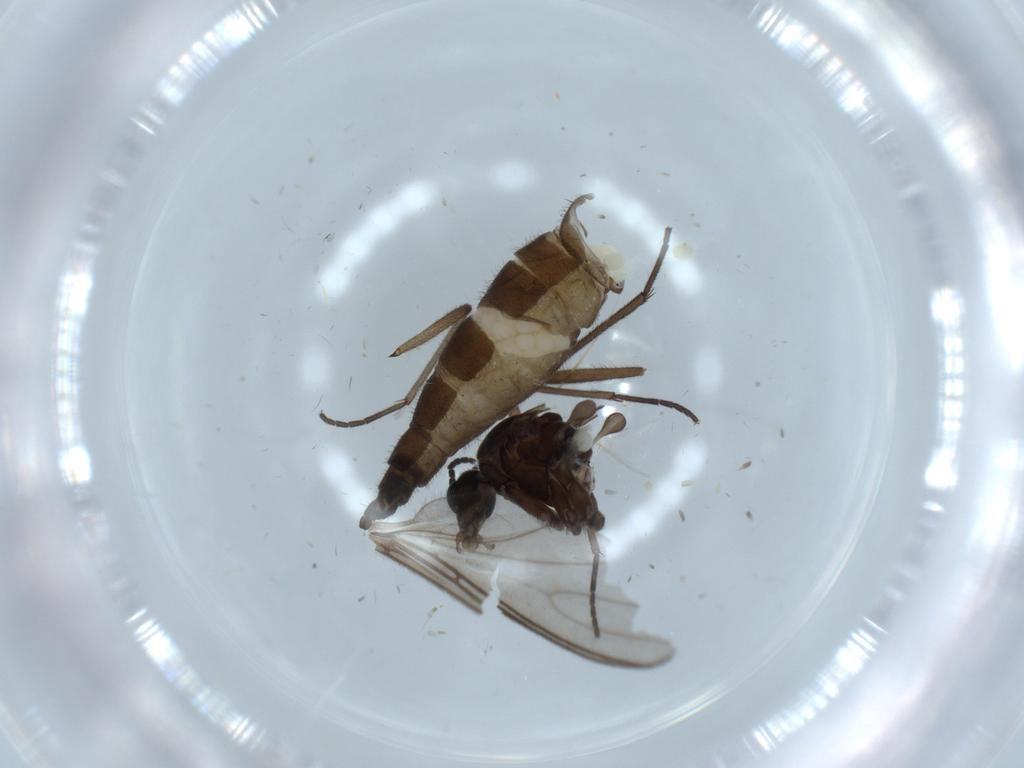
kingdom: Animalia
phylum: Arthropoda
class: Insecta
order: Diptera
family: Sciaridae
